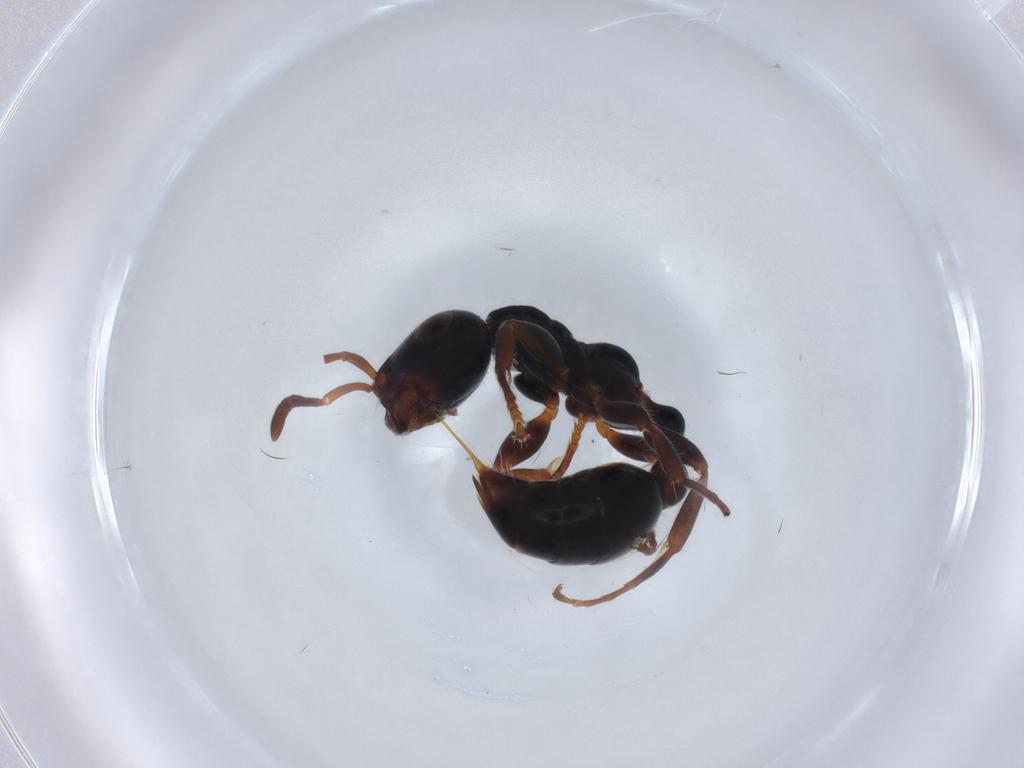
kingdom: Animalia
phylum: Arthropoda
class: Insecta
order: Hymenoptera
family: Formicidae
